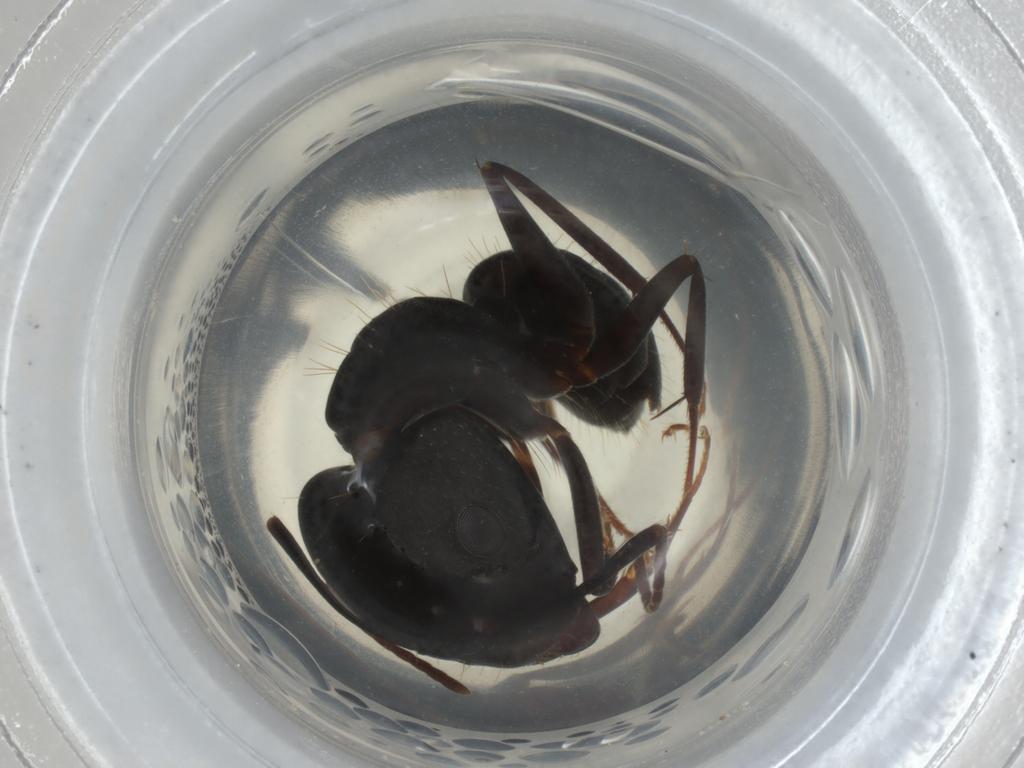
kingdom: Animalia
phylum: Arthropoda
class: Insecta
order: Hymenoptera
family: Formicidae
